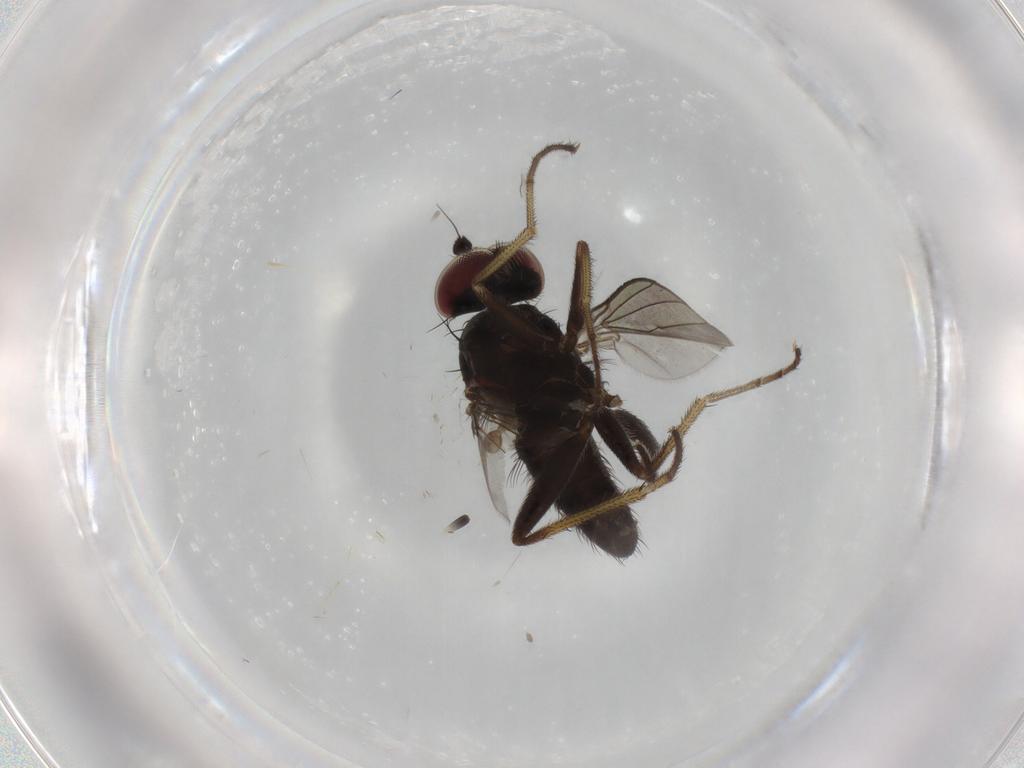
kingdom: Animalia
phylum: Arthropoda
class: Insecta
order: Diptera
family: Dolichopodidae
